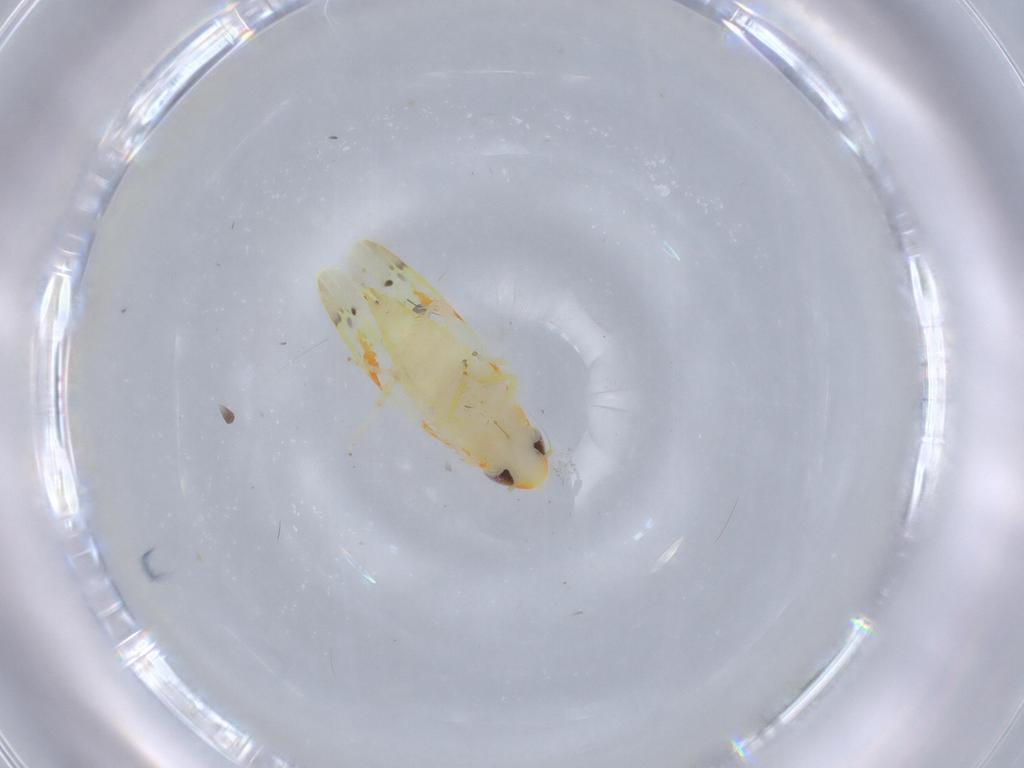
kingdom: Animalia
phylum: Arthropoda
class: Insecta
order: Hemiptera
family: Cicadellidae
